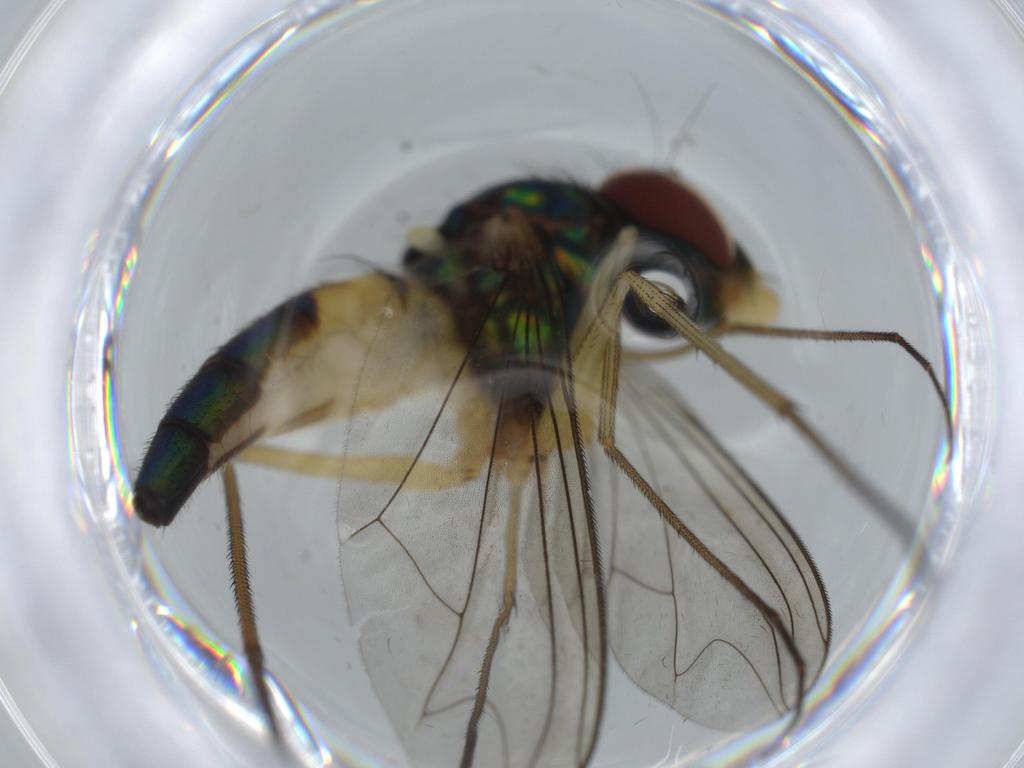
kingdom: Animalia
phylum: Arthropoda
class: Insecta
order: Diptera
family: Dolichopodidae
